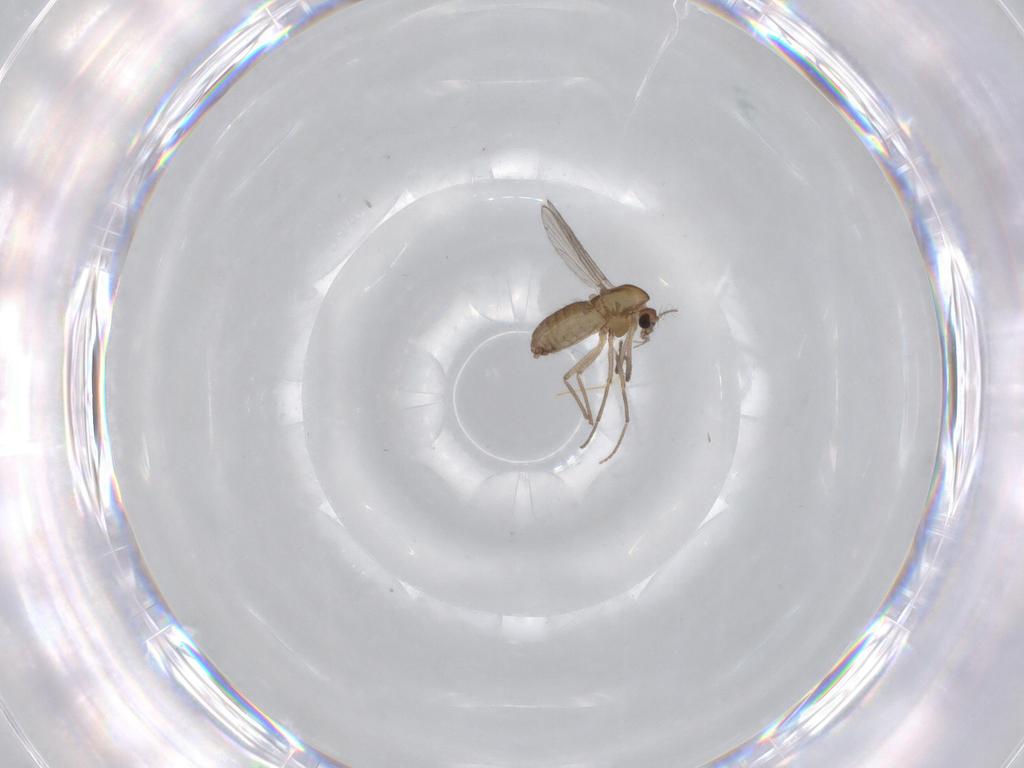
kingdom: Animalia
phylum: Arthropoda
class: Insecta
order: Diptera
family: Chironomidae
